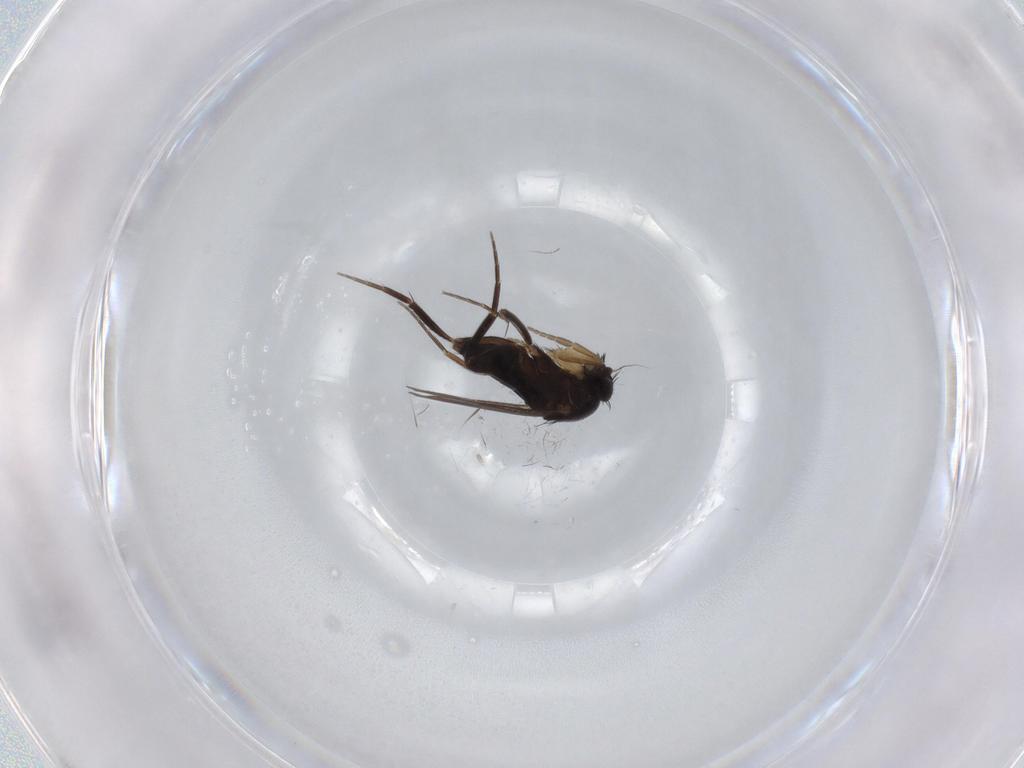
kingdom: Animalia
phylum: Arthropoda
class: Insecta
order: Diptera
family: Phoridae
